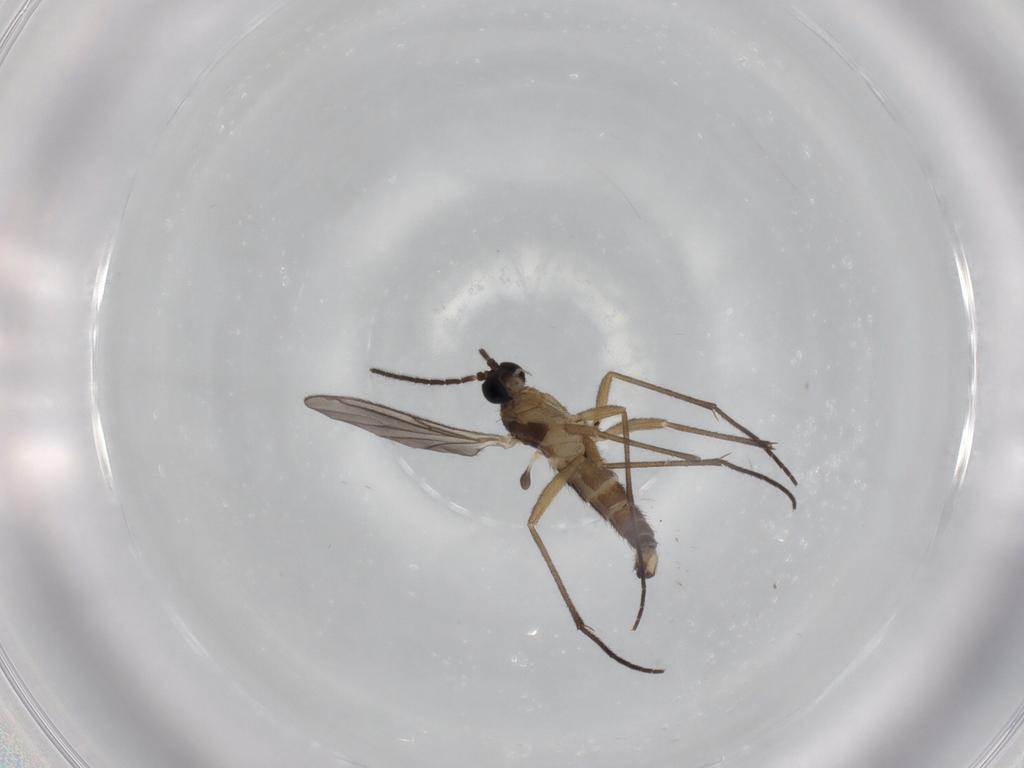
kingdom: Animalia
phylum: Arthropoda
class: Insecta
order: Diptera
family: Sciaridae
